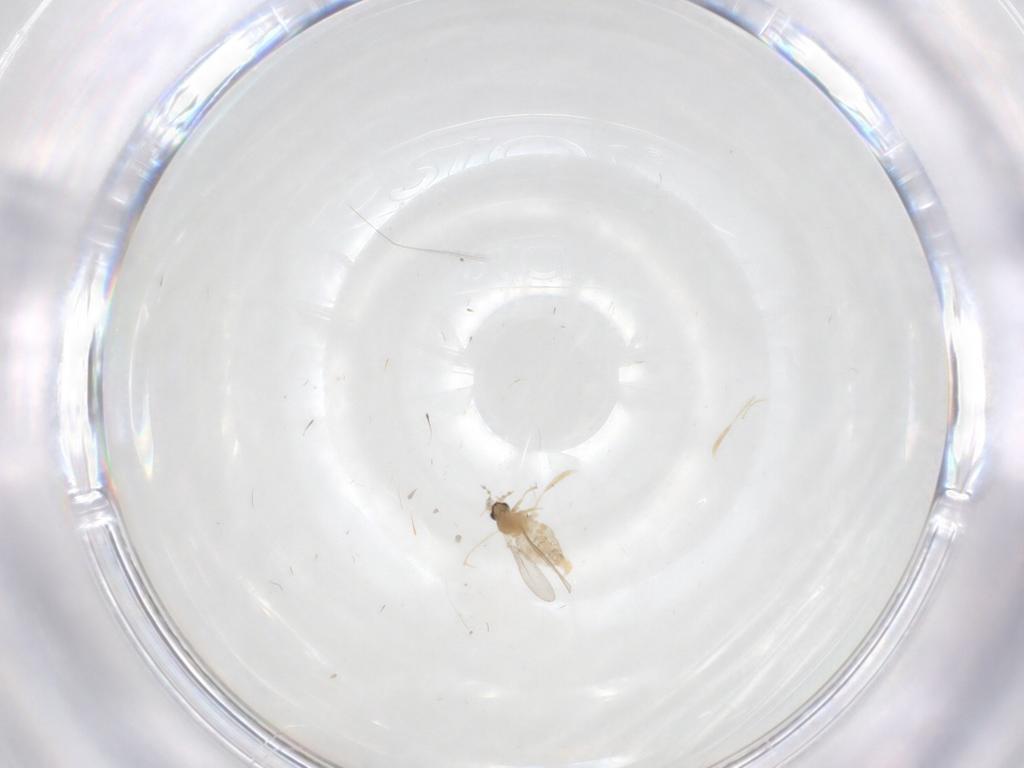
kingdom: Animalia
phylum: Arthropoda
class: Insecta
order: Diptera
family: Cecidomyiidae
